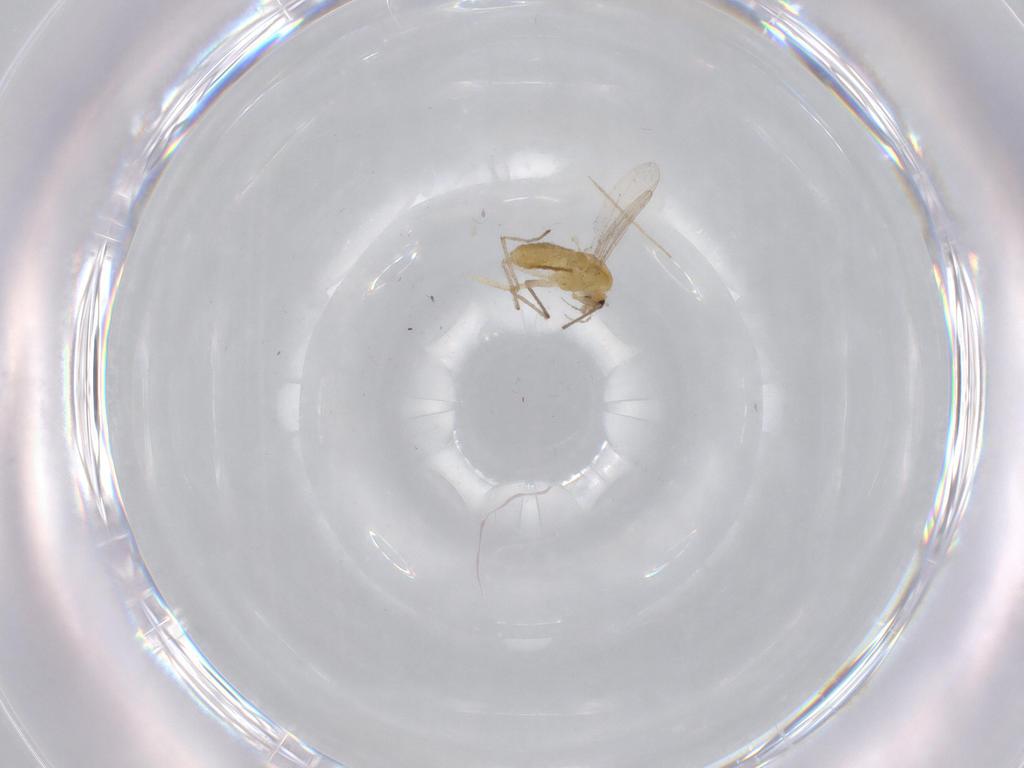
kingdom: Animalia
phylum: Arthropoda
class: Insecta
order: Diptera
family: Chironomidae
